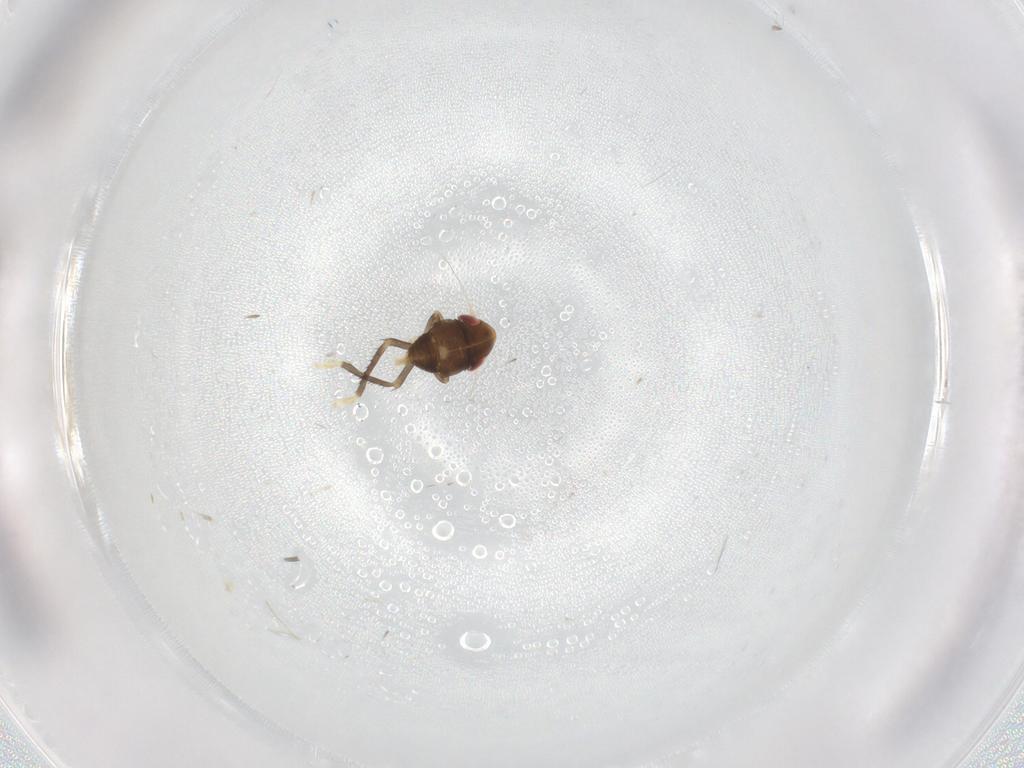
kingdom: Animalia
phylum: Arthropoda
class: Insecta
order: Hemiptera
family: Cicadellidae
